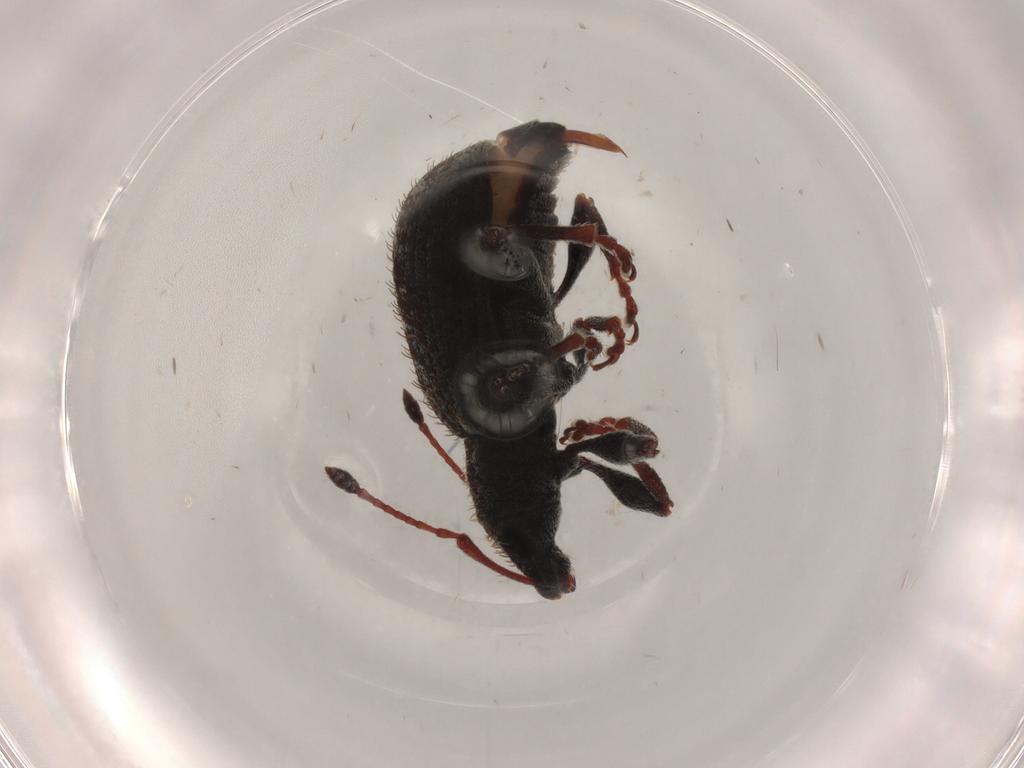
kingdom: Animalia
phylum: Arthropoda
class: Insecta
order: Coleoptera
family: Curculionidae
